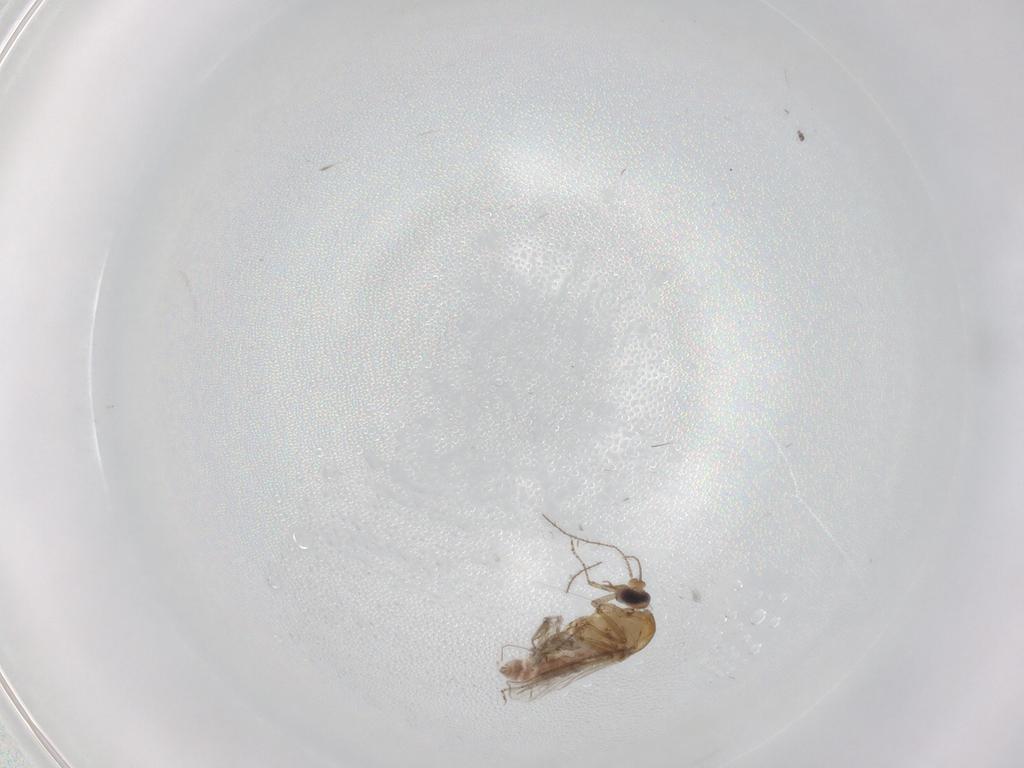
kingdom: Animalia
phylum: Arthropoda
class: Insecta
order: Diptera
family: Chironomidae
